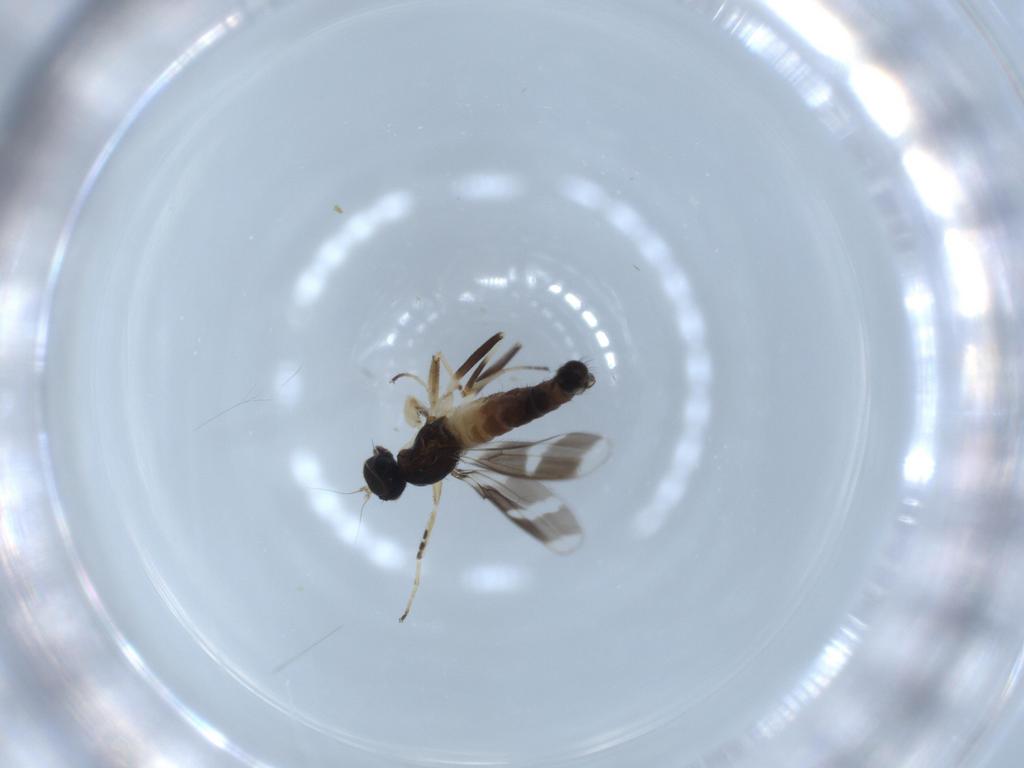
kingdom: Animalia
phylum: Arthropoda
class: Insecta
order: Diptera
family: Hybotidae
